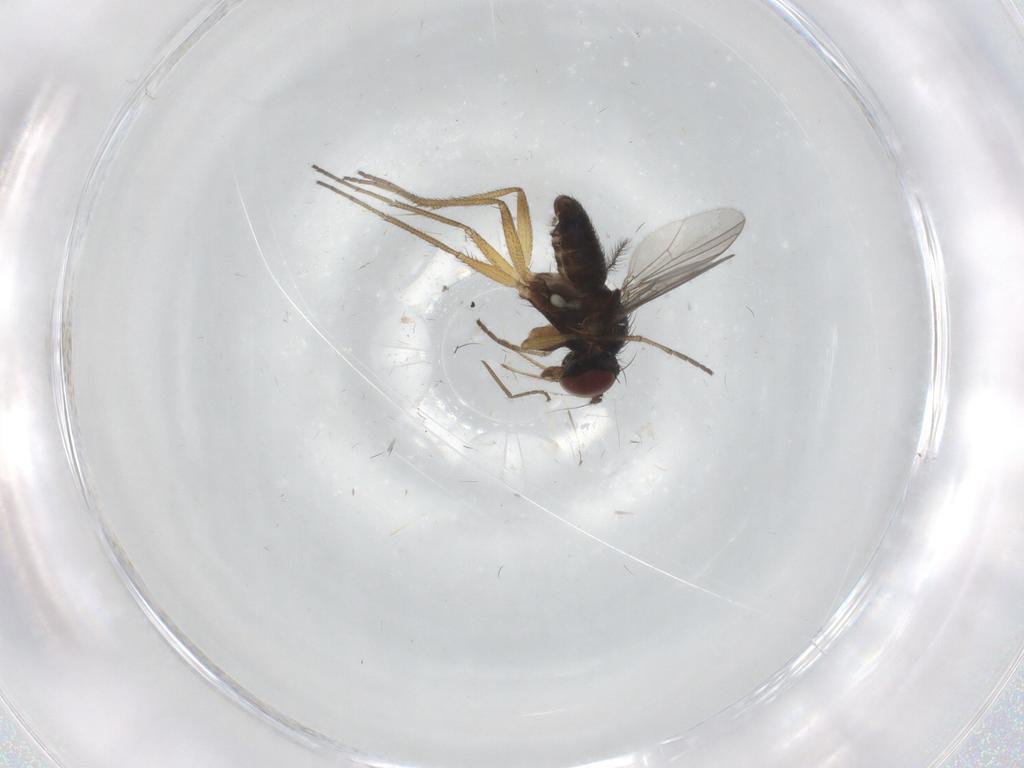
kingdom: Animalia
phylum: Arthropoda
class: Insecta
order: Diptera
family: Dolichopodidae
